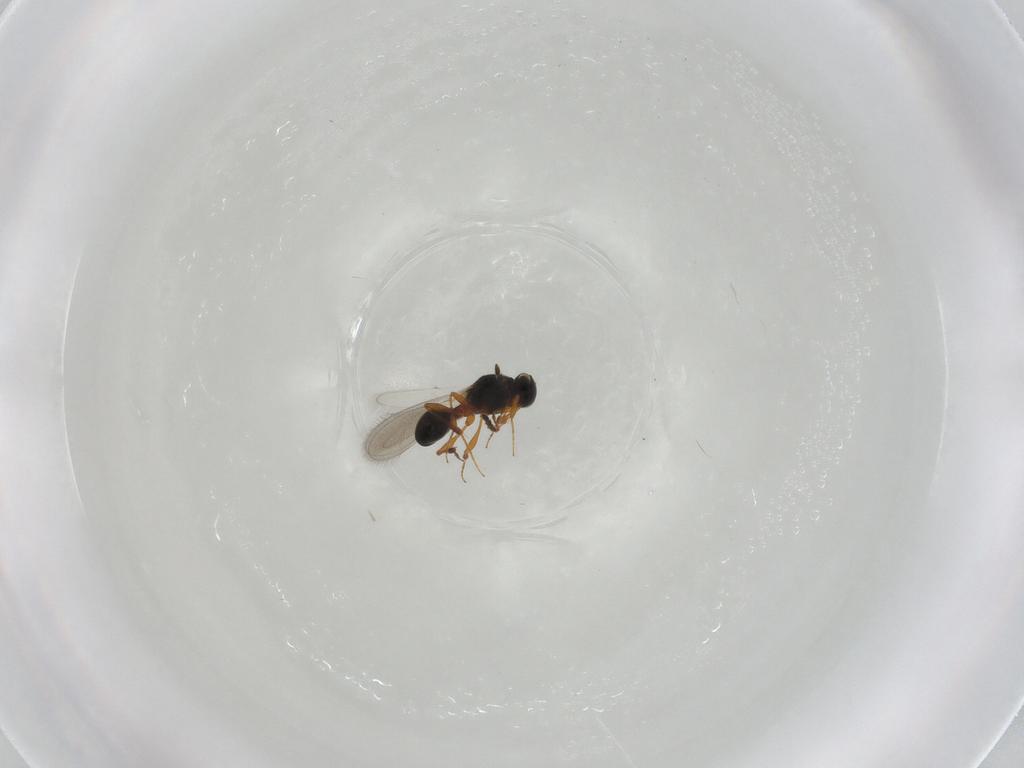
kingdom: Animalia
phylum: Arthropoda
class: Insecta
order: Hymenoptera
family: Platygastridae
